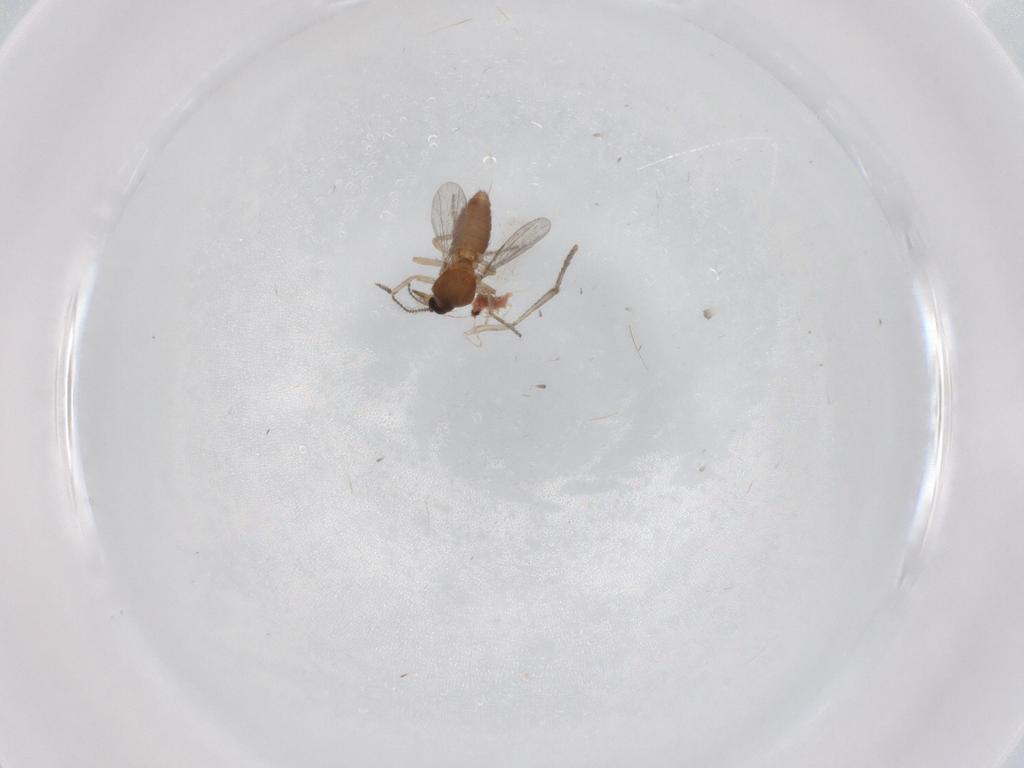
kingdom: Animalia
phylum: Arthropoda
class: Insecta
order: Diptera
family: Psychodidae
